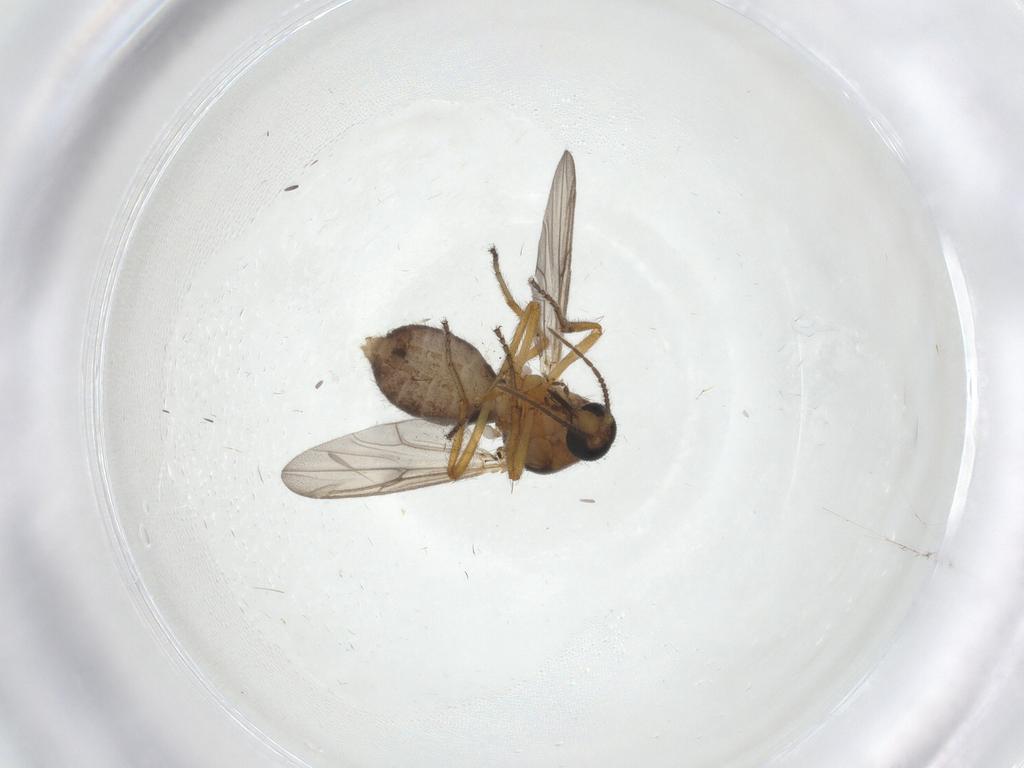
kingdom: Animalia
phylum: Arthropoda
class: Insecta
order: Diptera
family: Ceratopogonidae
